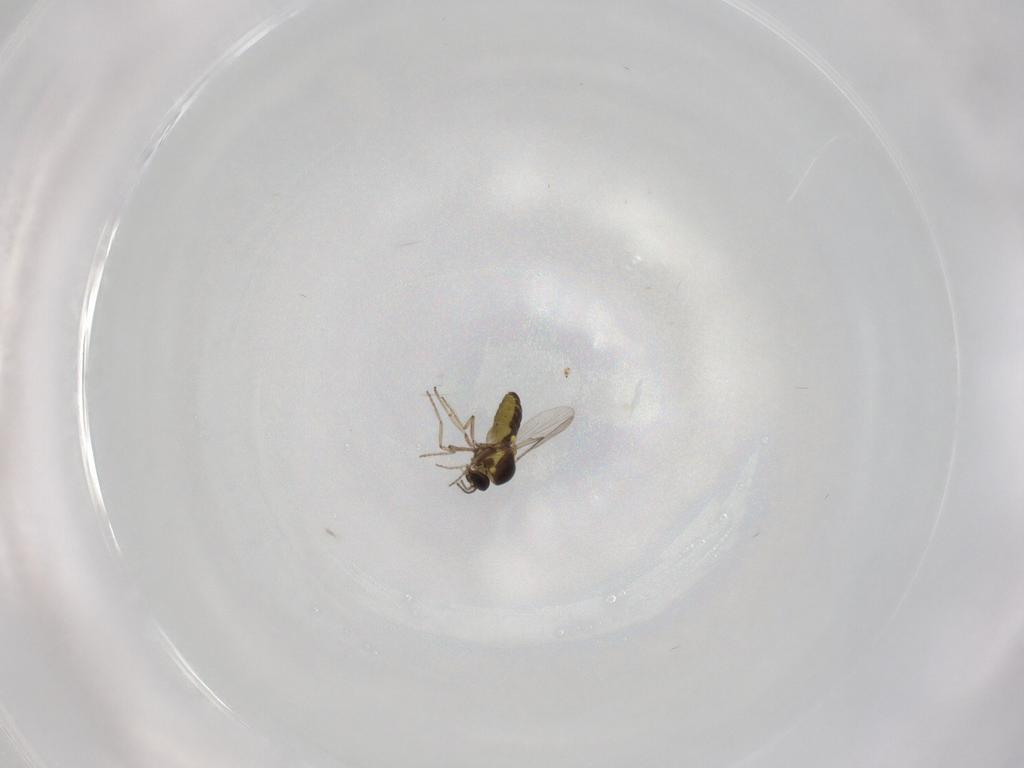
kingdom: Animalia
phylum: Arthropoda
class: Insecta
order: Diptera
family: Ceratopogonidae
